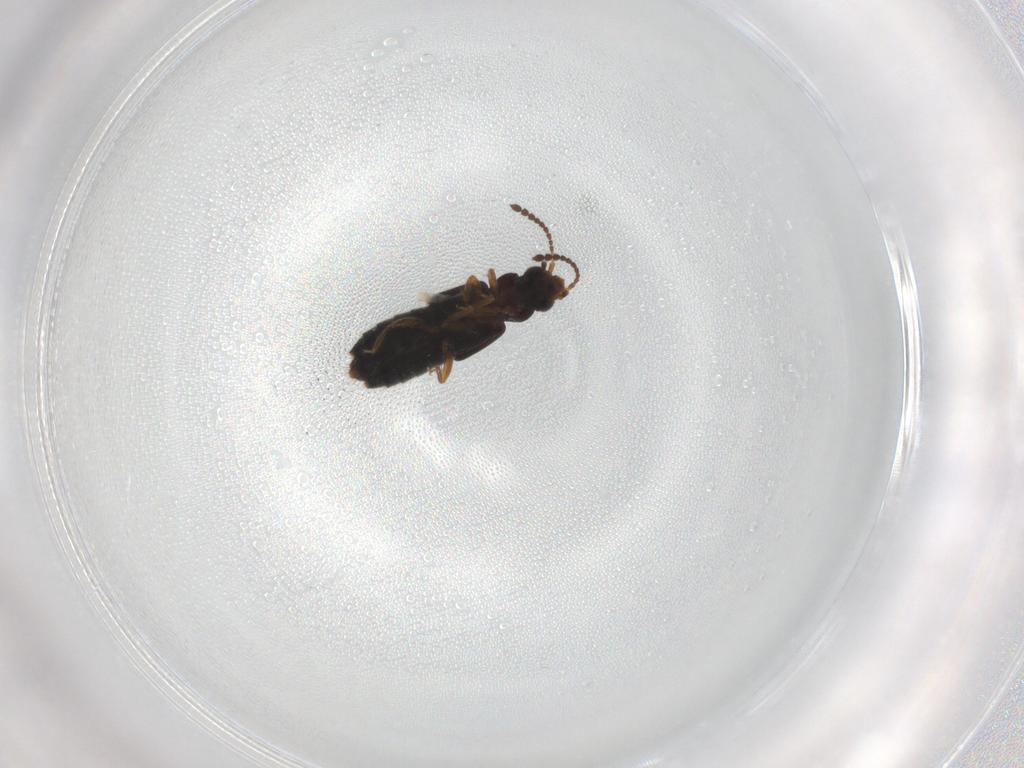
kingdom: Animalia
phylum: Arthropoda
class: Insecta
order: Coleoptera
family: Staphylinidae
